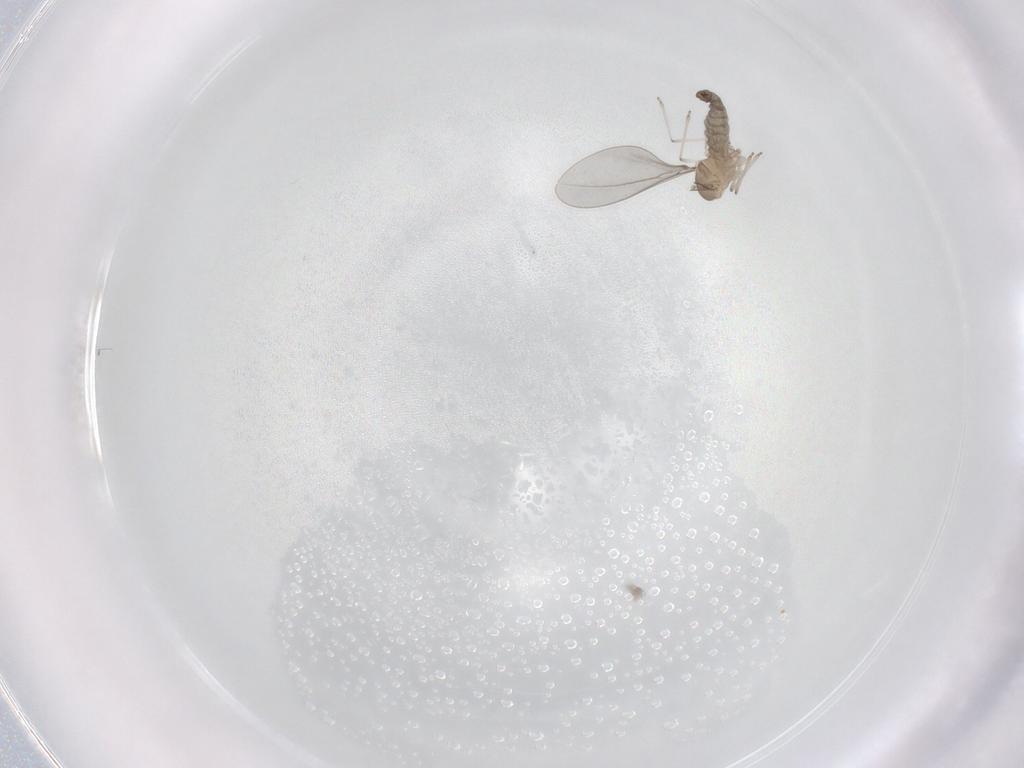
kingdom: Animalia
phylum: Arthropoda
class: Insecta
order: Diptera
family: Cecidomyiidae
